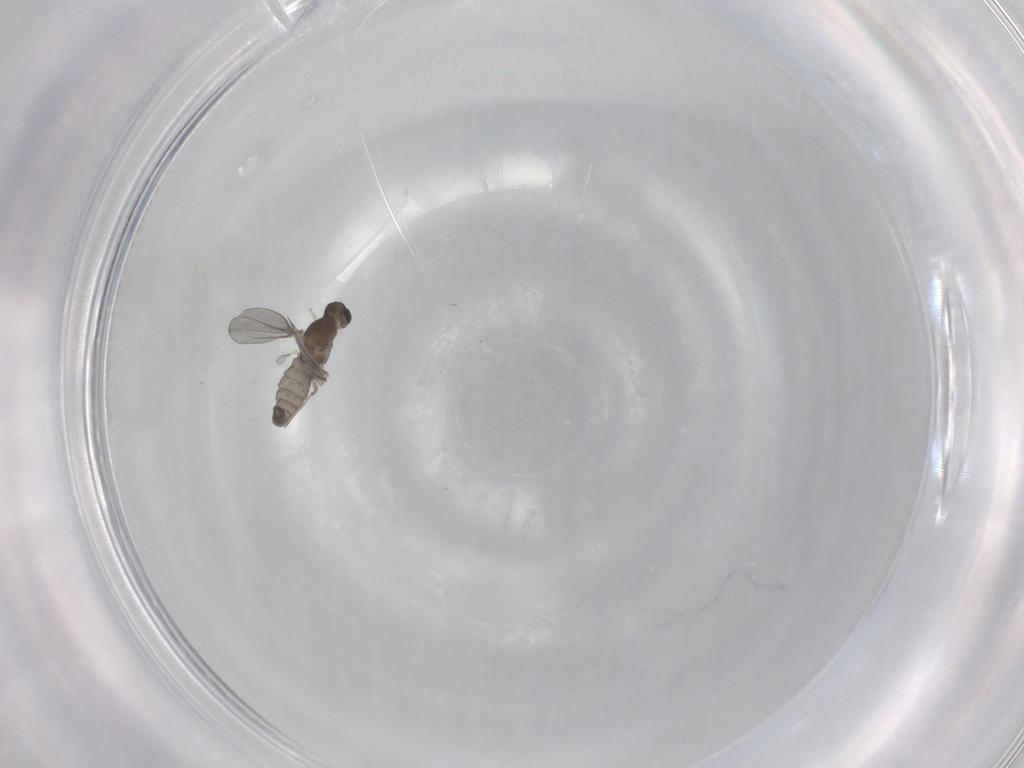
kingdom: Animalia
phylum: Arthropoda
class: Insecta
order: Diptera
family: Cecidomyiidae
